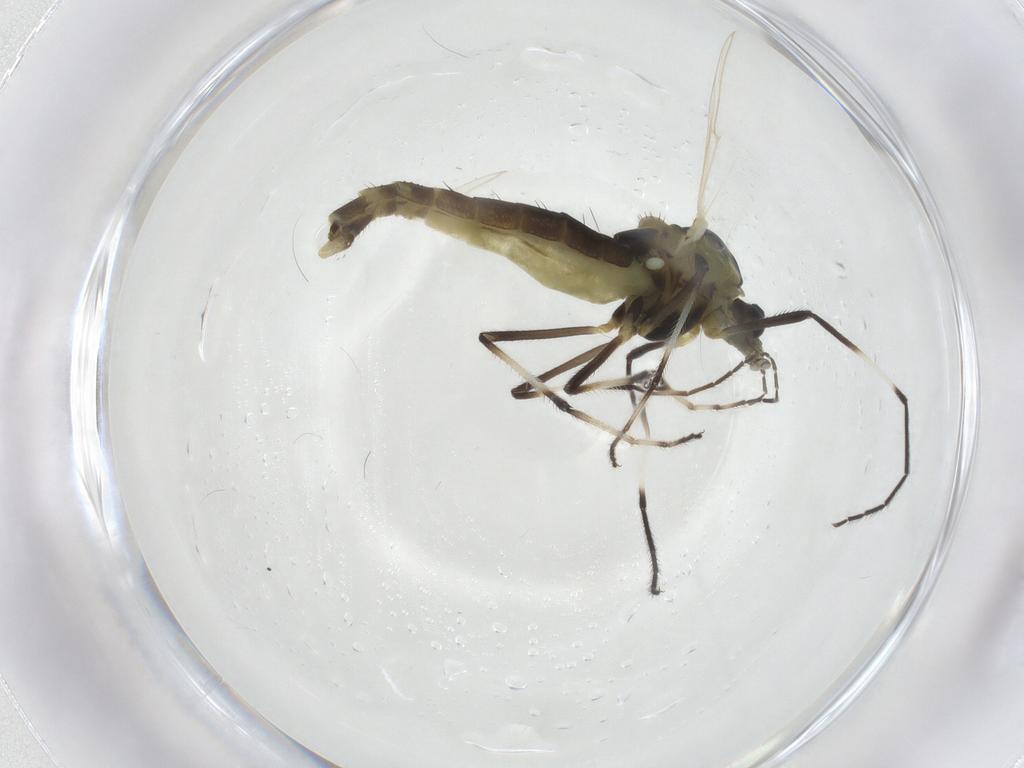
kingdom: Animalia
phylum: Arthropoda
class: Insecta
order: Diptera
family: Chironomidae
